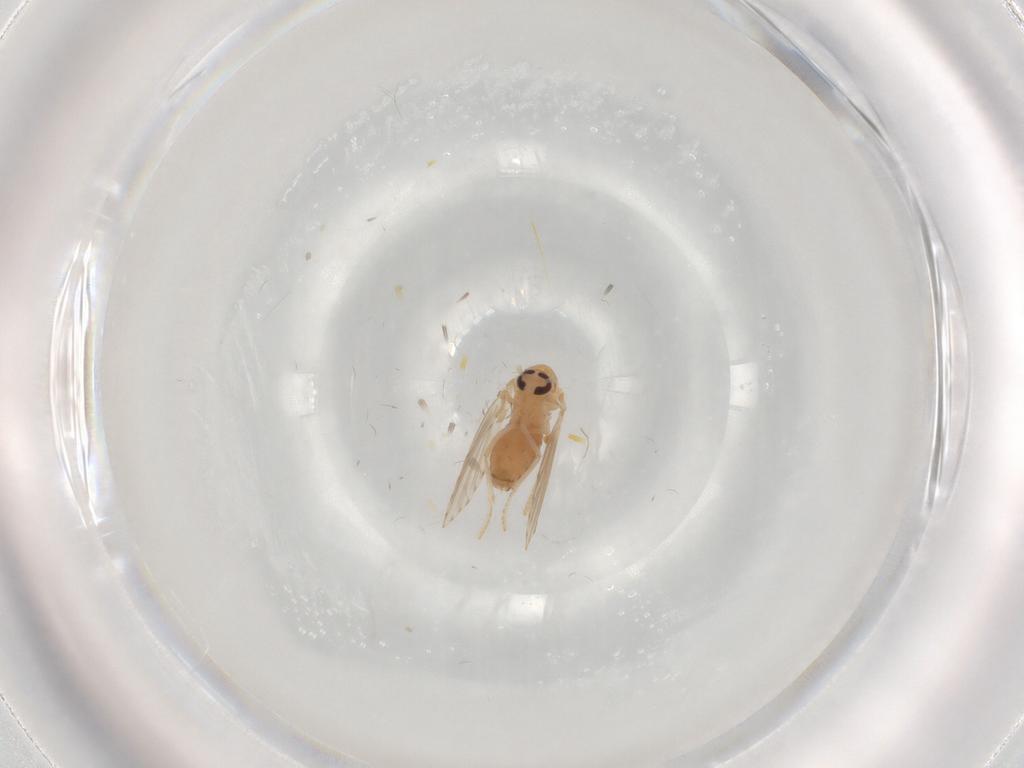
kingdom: Animalia
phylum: Arthropoda
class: Insecta
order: Diptera
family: Psychodidae
